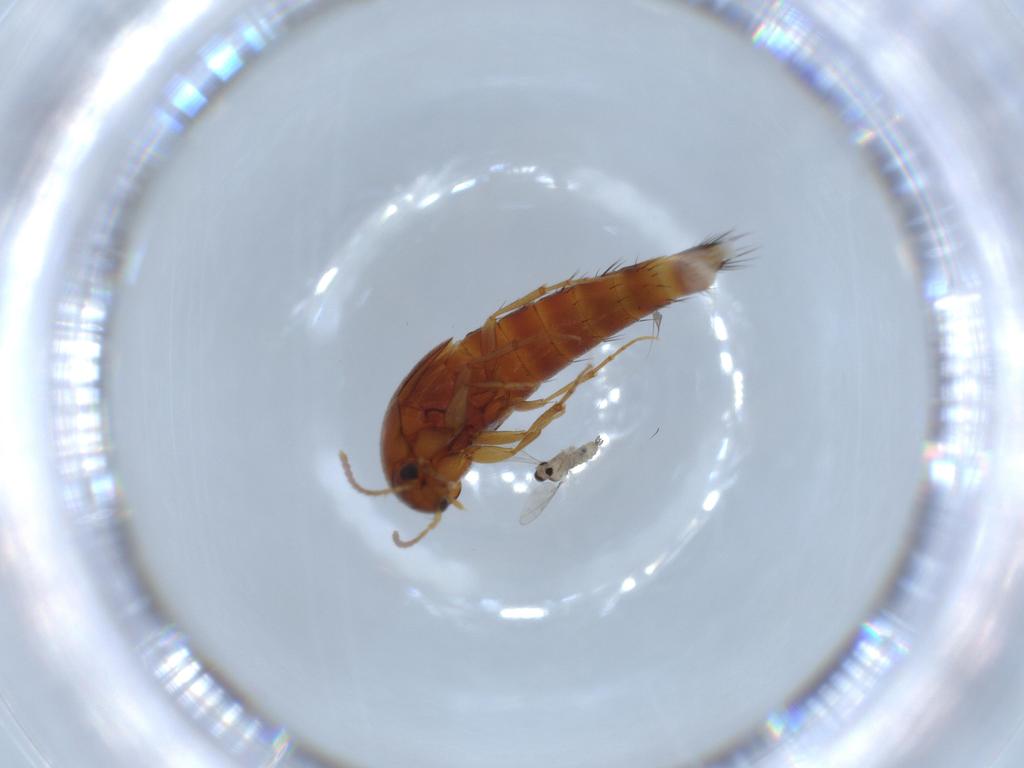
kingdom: Animalia
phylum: Arthropoda
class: Insecta
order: Coleoptera
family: Staphylinidae
